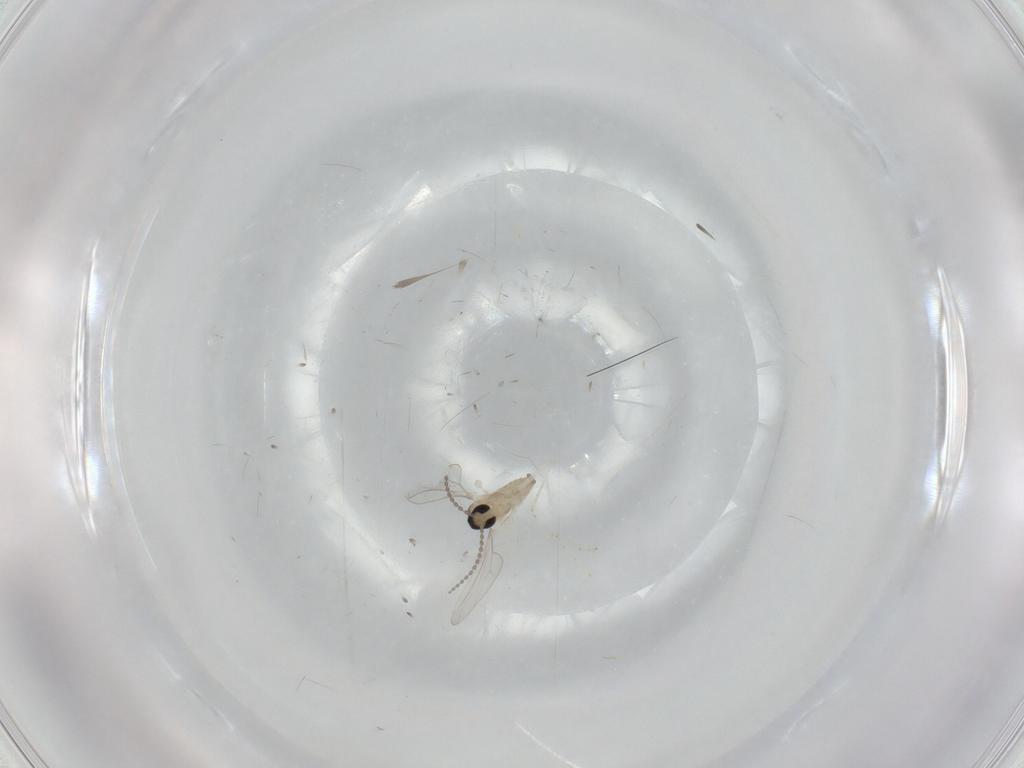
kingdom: Animalia
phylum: Arthropoda
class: Insecta
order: Diptera
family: Cecidomyiidae
